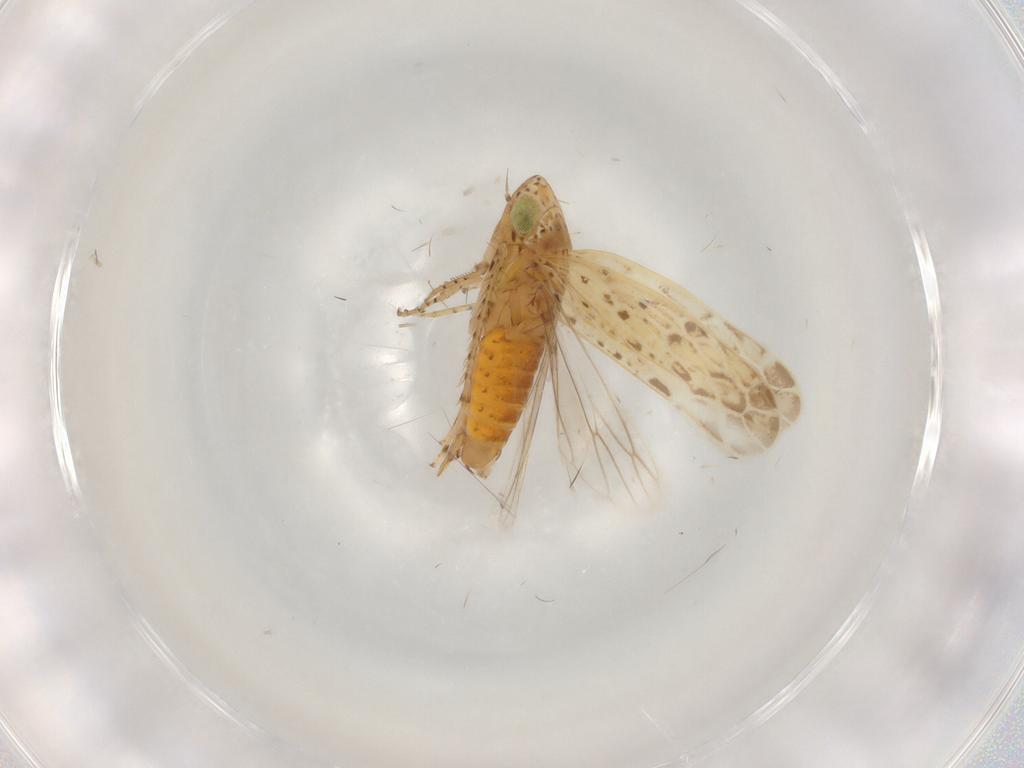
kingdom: Animalia
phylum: Arthropoda
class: Insecta
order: Hemiptera
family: Cicadellidae
